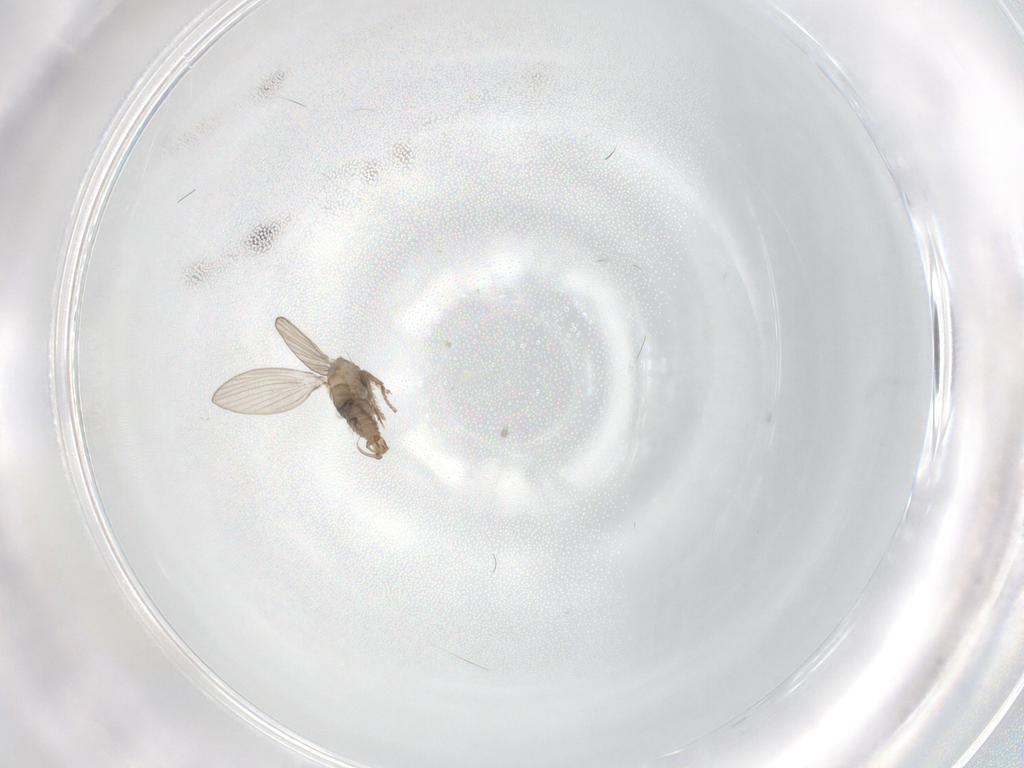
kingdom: Animalia
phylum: Arthropoda
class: Insecta
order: Diptera
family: Psychodidae
